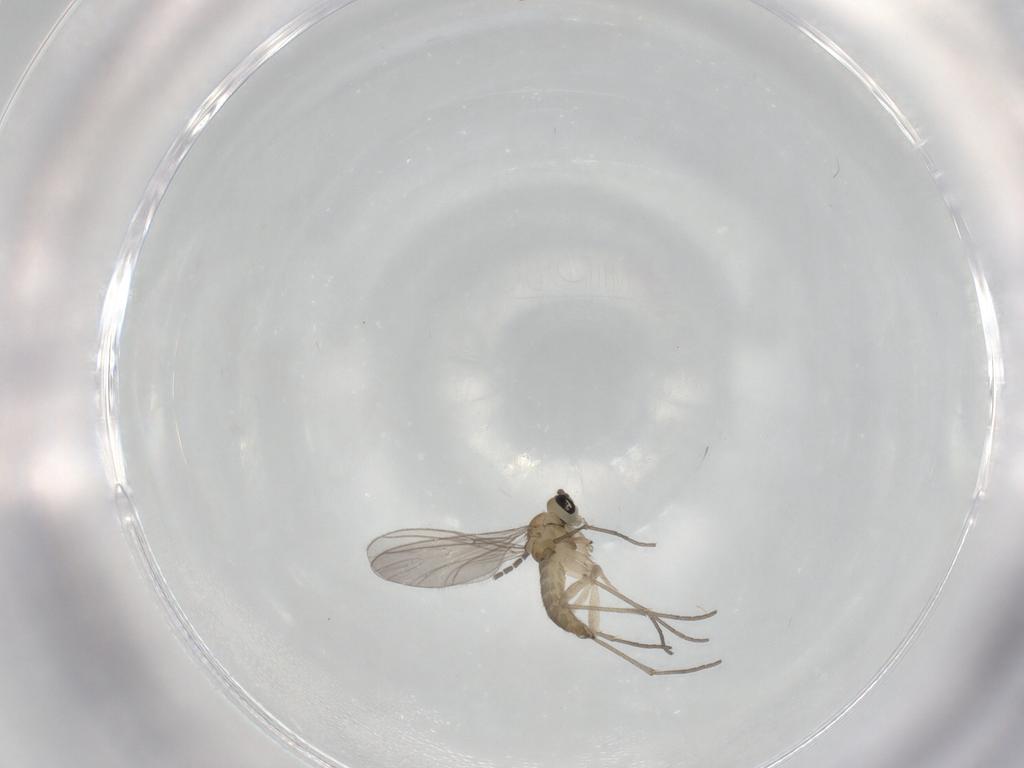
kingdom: Animalia
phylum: Arthropoda
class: Insecta
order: Diptera
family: Sciaridae
